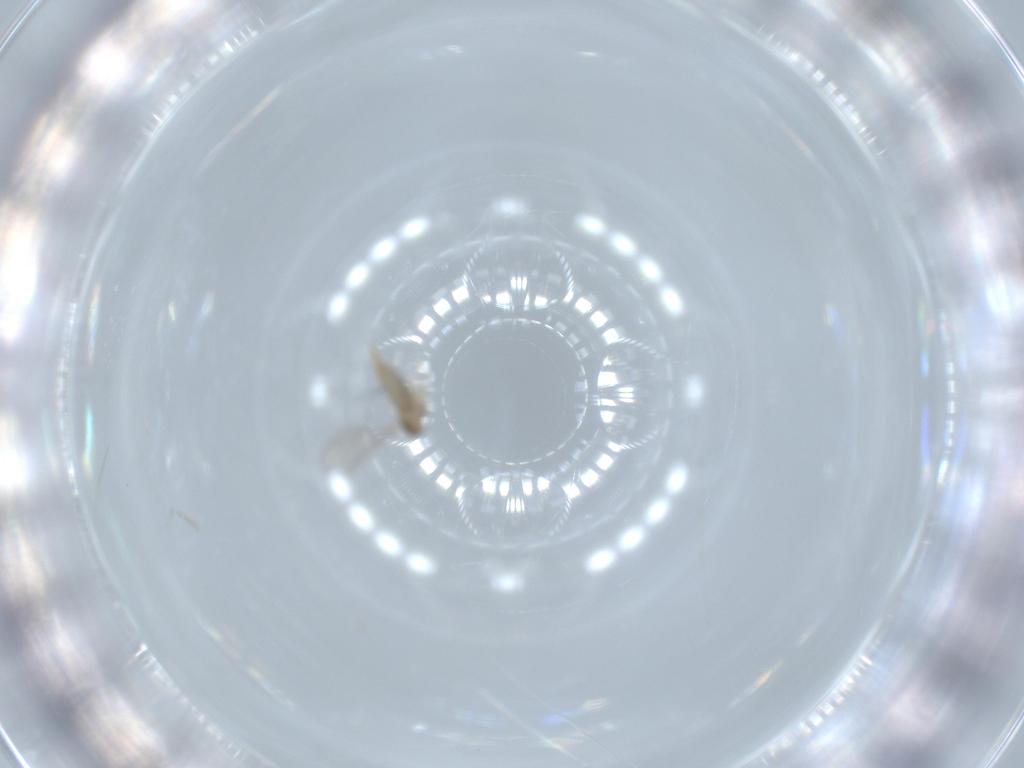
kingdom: Animalia
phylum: Arthropoda
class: Insecta
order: Diptera
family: Cecidomyiidae
